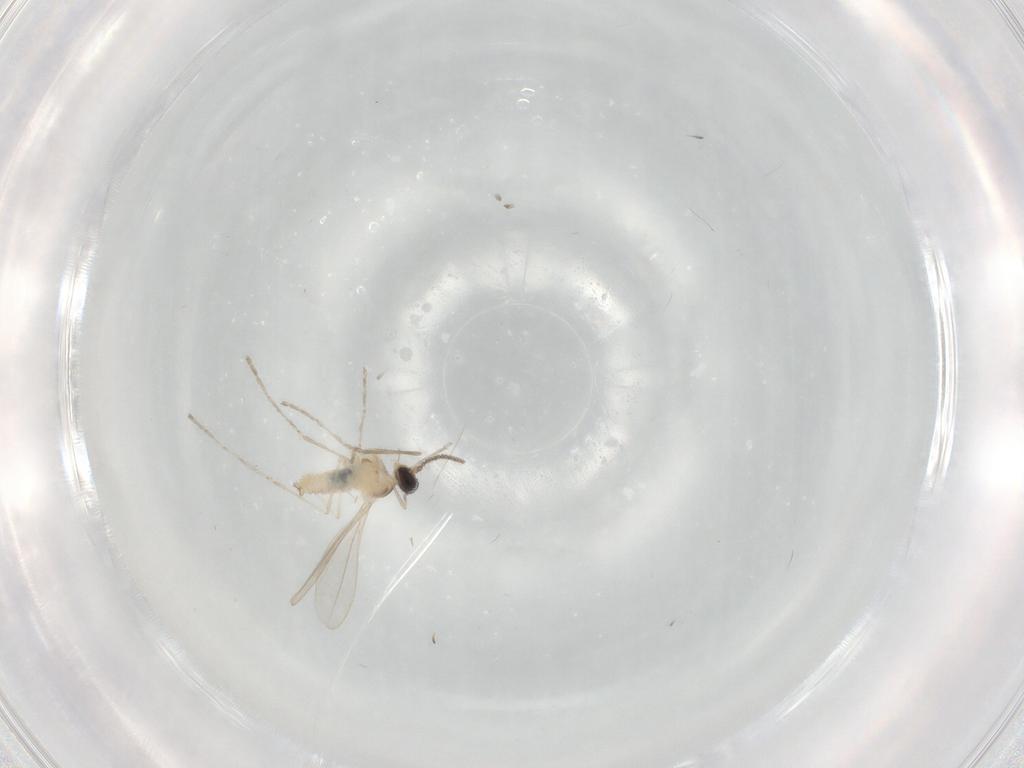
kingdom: Animalia
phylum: Arthropoda
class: Insecta
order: Diptera
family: Cecidomyiidae
